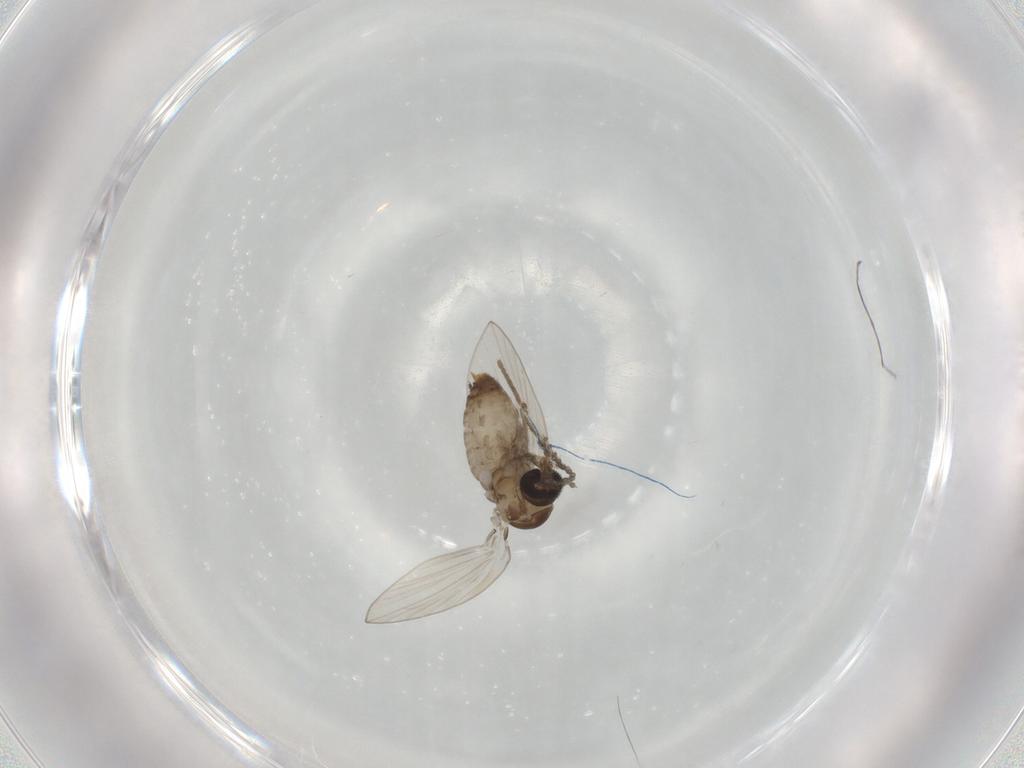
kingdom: Animalia
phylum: Arthropoda
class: Insecta
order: Diptera
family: Psychodidae
